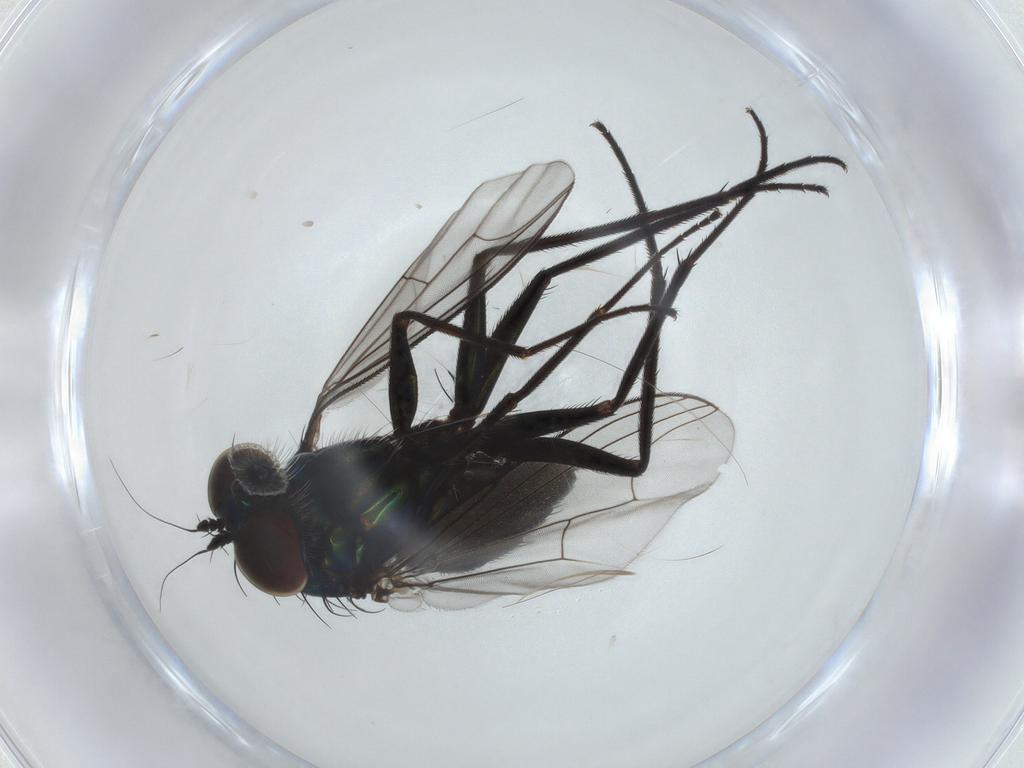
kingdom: Animalia
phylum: Arthropoda
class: Insecta
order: Diptera
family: Dolichopodidae
